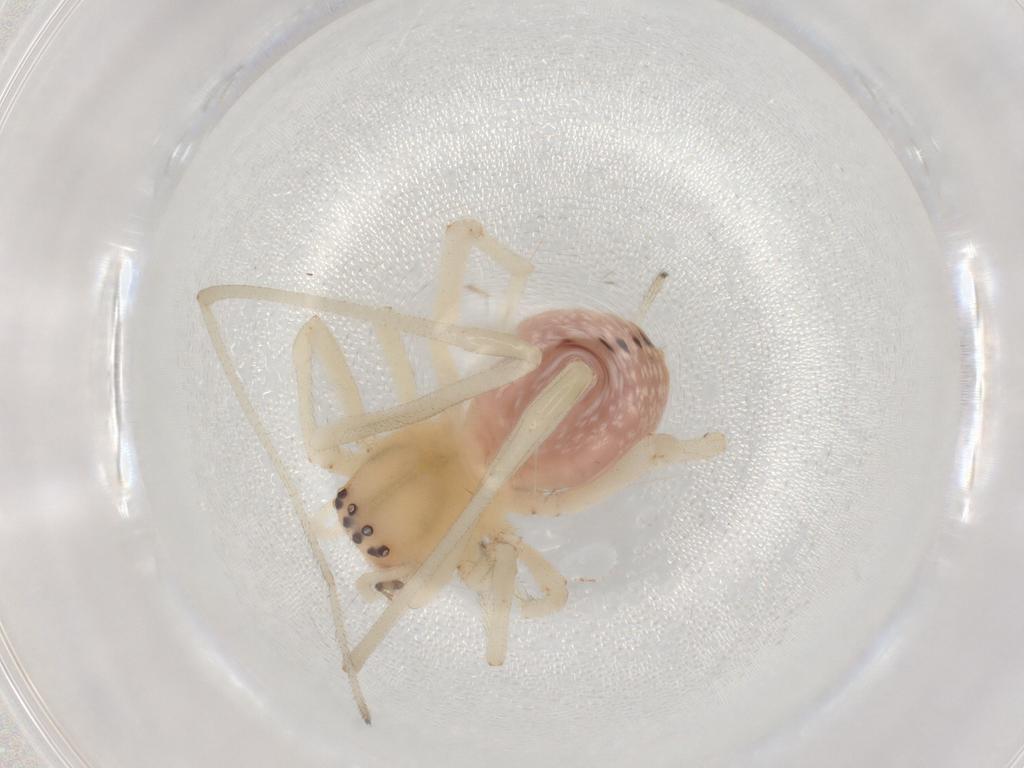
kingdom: Animalia
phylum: Arthropoda
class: Arachnida
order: Araneae
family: Cheiracanthiidae
